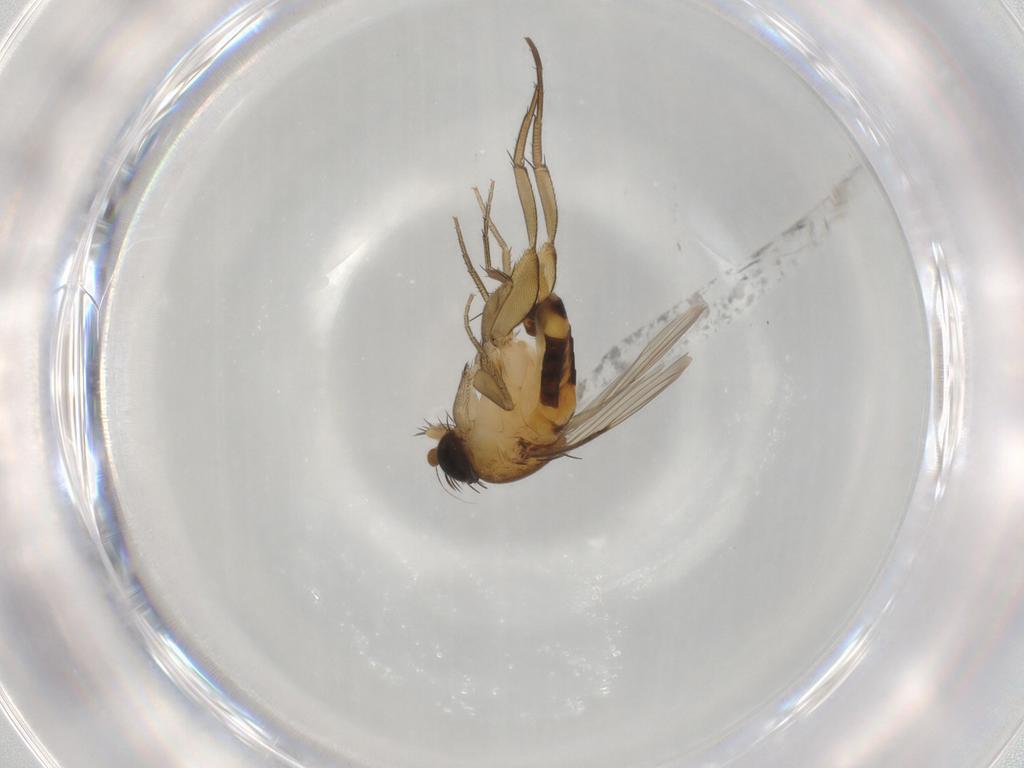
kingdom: Animalia
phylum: Arthropoda
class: Insecta
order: Diptera
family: Phoridae
